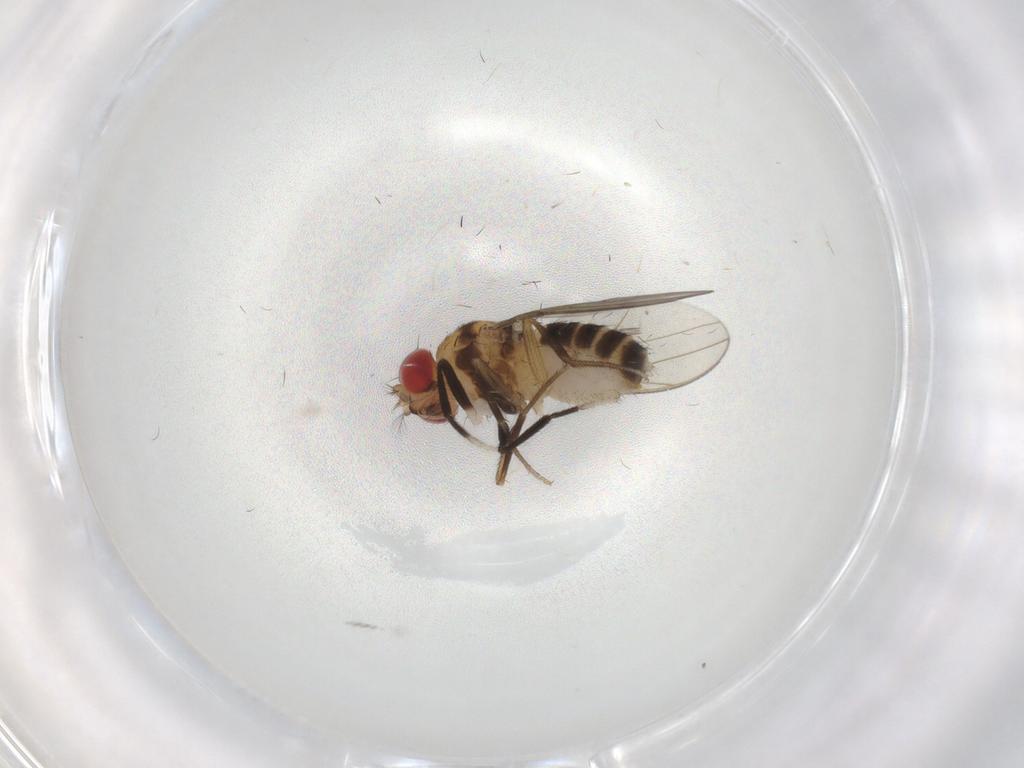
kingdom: Animalia
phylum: Arthropoda
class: Insecta
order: Diptera
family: Drosophilidae
